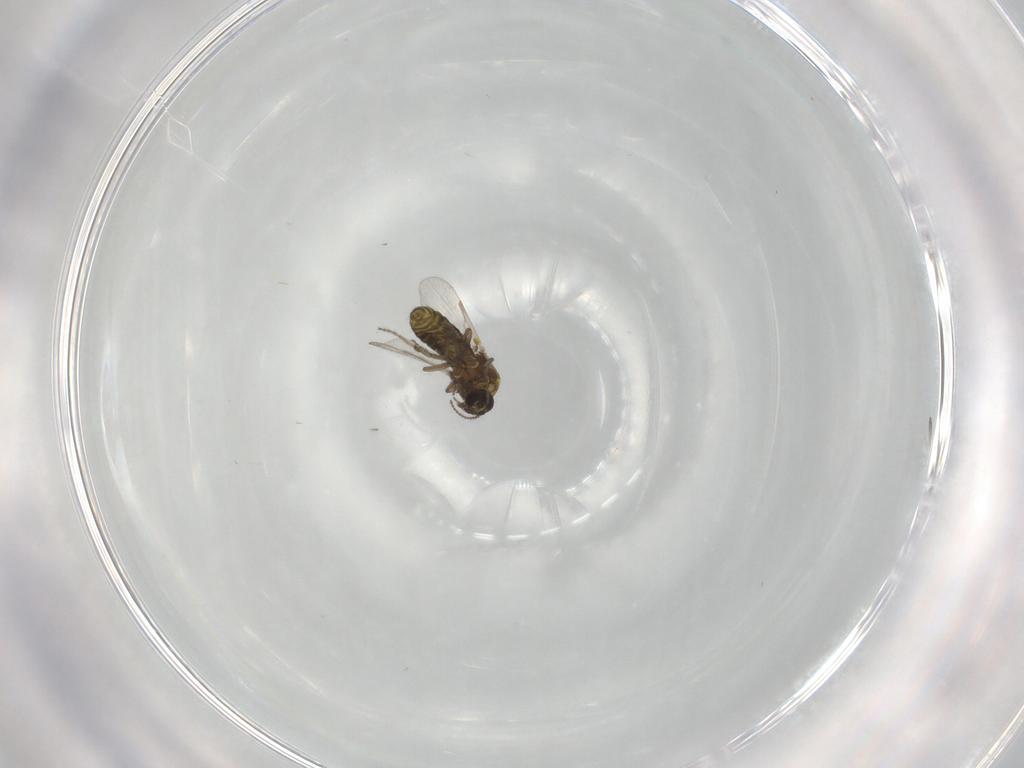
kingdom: Animalia
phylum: Arthropoda
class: Insecta
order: Diptera
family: Ceratopogonidae
